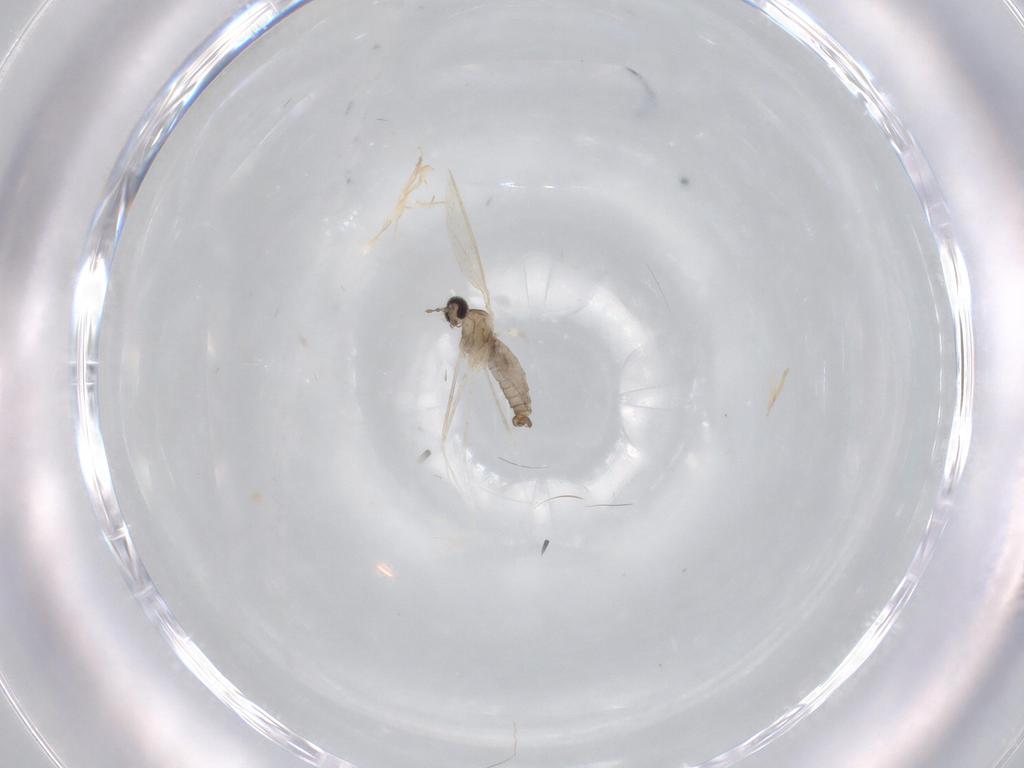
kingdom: Animalia
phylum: Arthropoda
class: Insecta
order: Diptera
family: Cecidomyiidae
